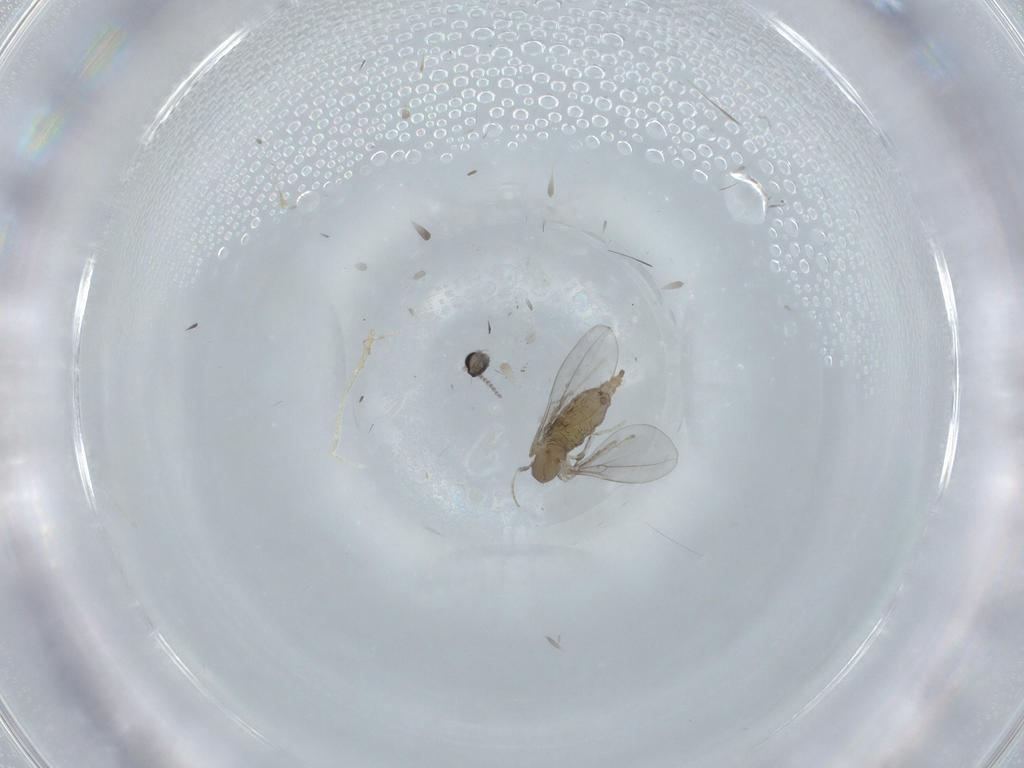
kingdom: Animalia
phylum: Arthropoda
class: Insecta
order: Diptera
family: Cecidomyiidae
